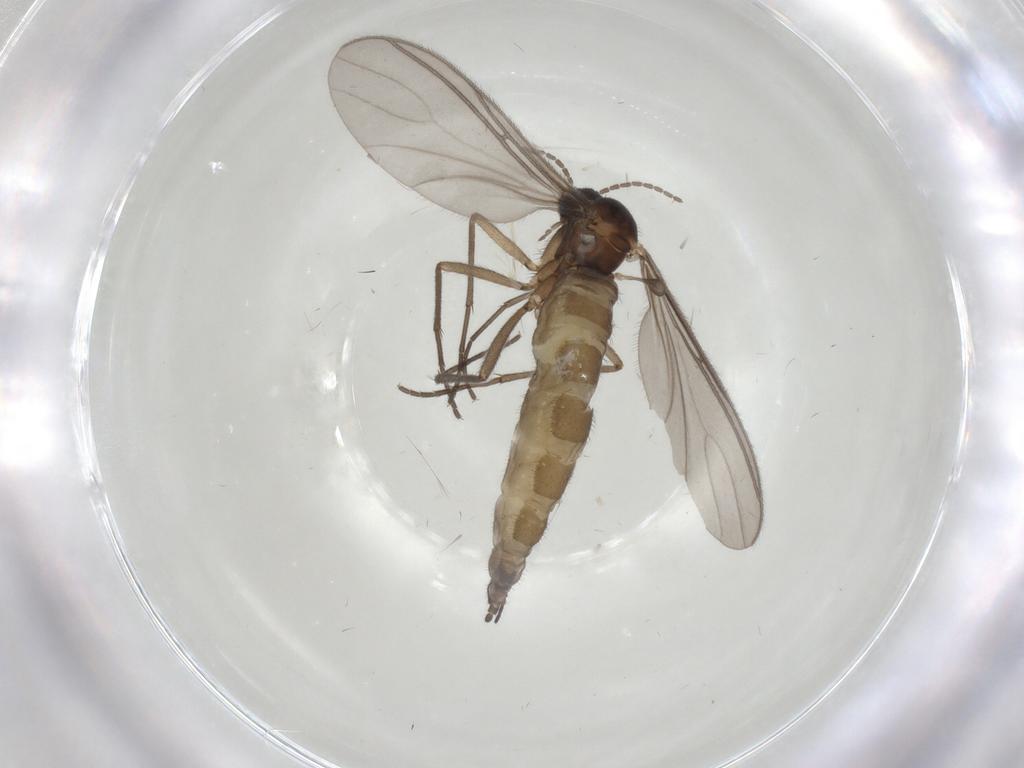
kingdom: Animalia
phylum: Arthropoda
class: Insecta
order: Diptera
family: Sciaridae
